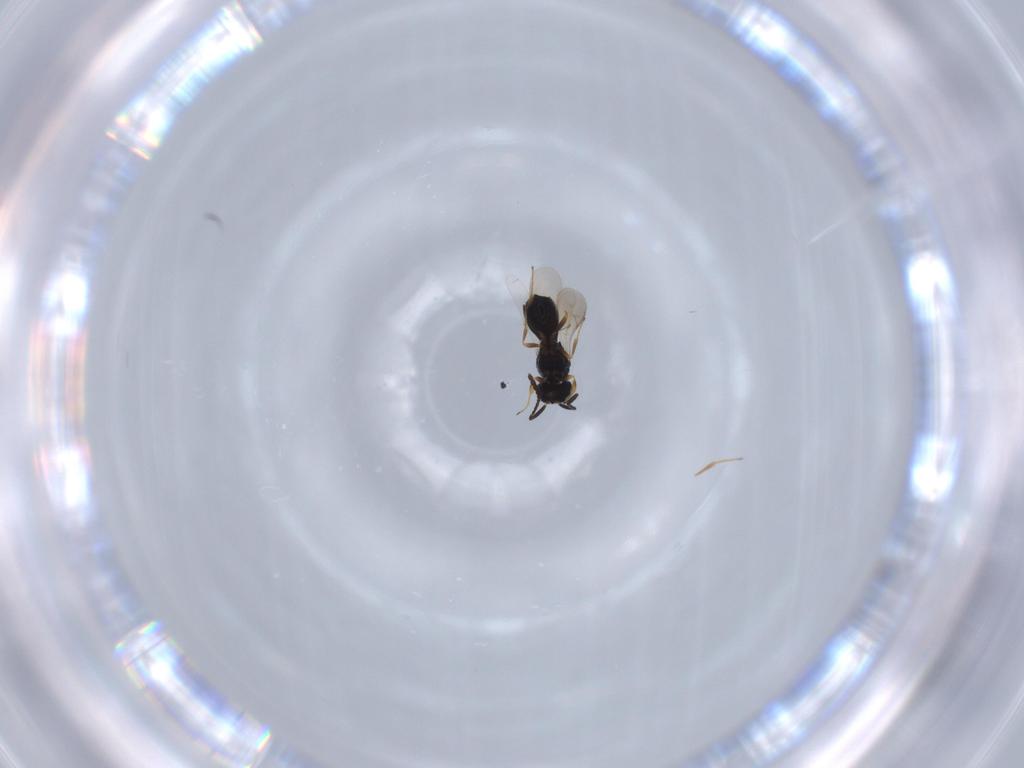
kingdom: Animalia
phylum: Arthropoda
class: Insecta
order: Hymenoptera
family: Scelionidae
